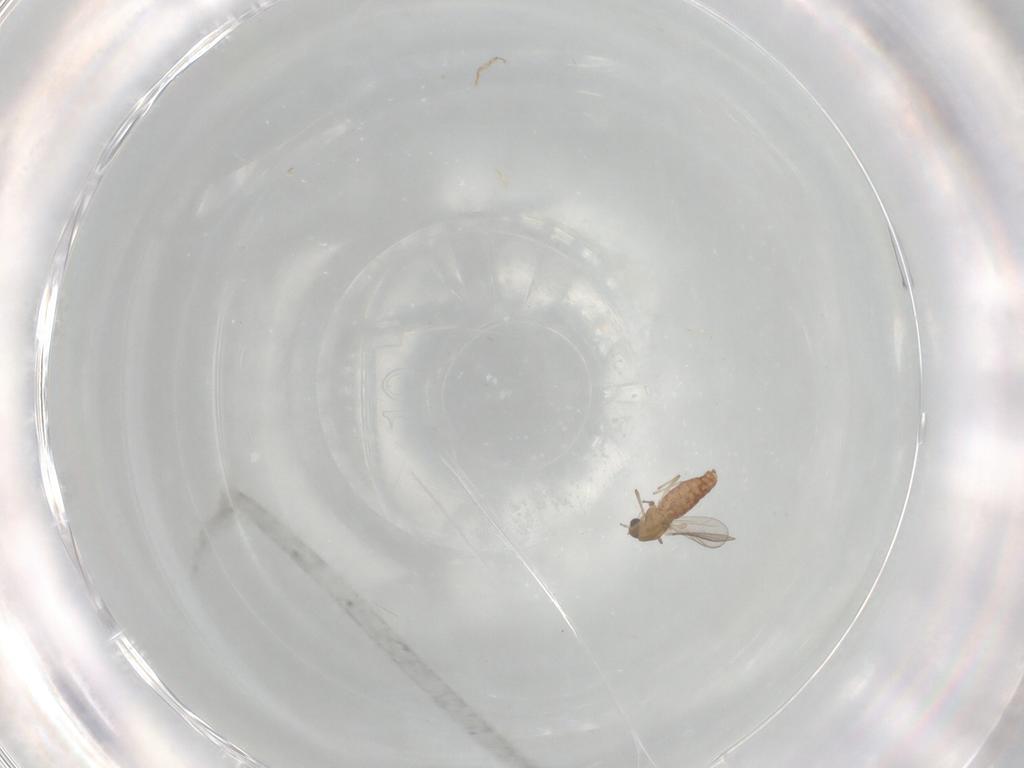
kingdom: Animalia
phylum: Arthropoda
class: Insecta
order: Diptera
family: Chironomidae
